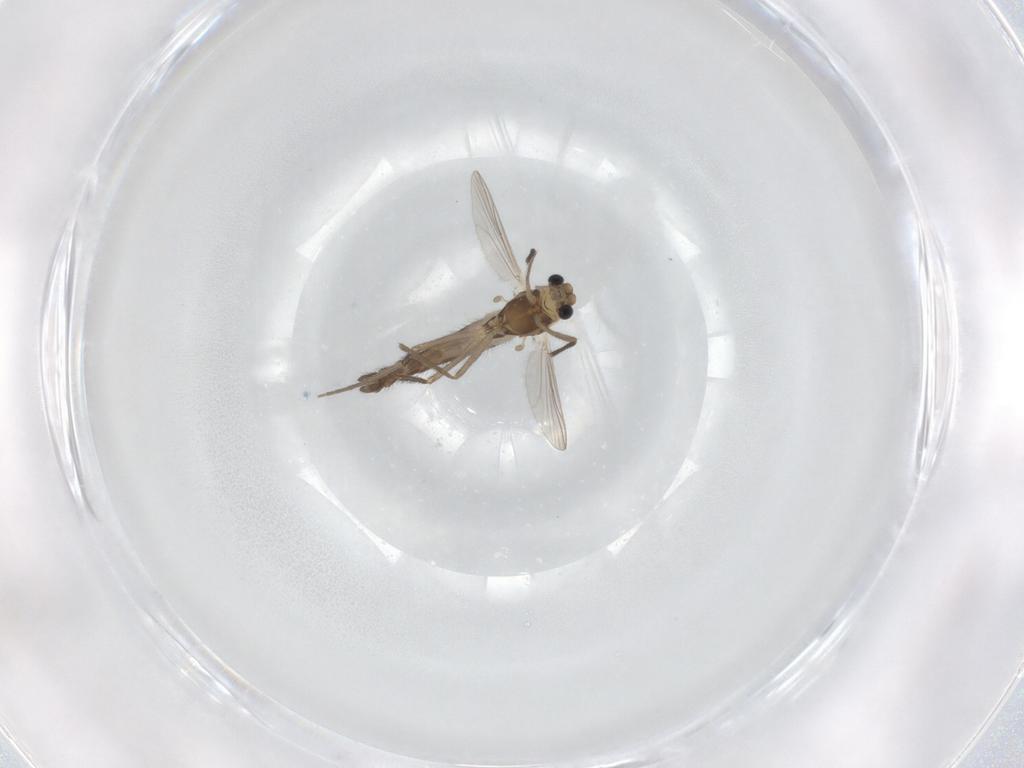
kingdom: Animalia
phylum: Arthropoda
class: Insecta
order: Diptera
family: Chironomidae
